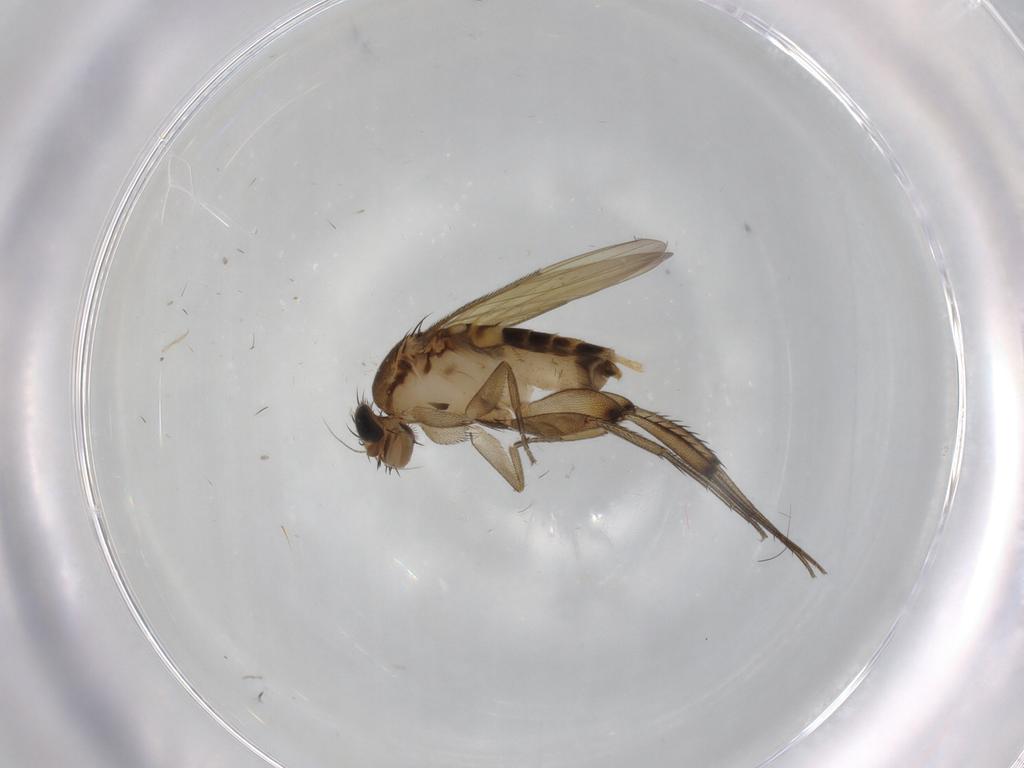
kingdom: Animalia
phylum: Arthropoda
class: Insecta
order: Diptera
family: Phoridae
